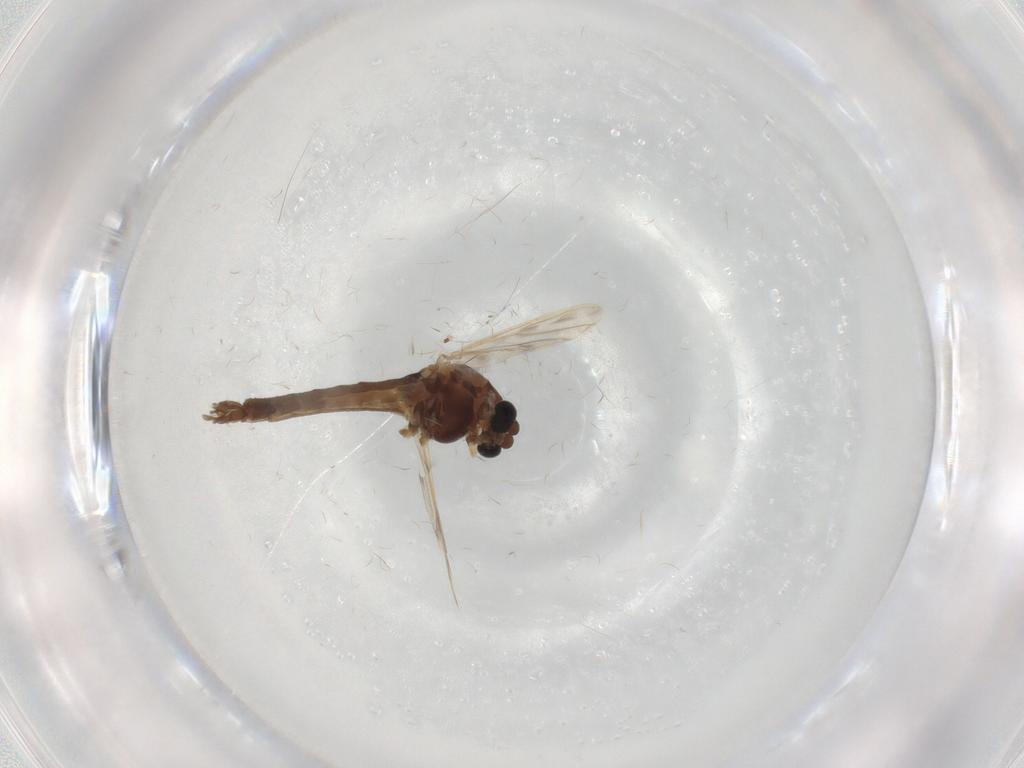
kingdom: Animalia
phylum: Arthropoda
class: Insecta
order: Diptera
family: Chironomidae
